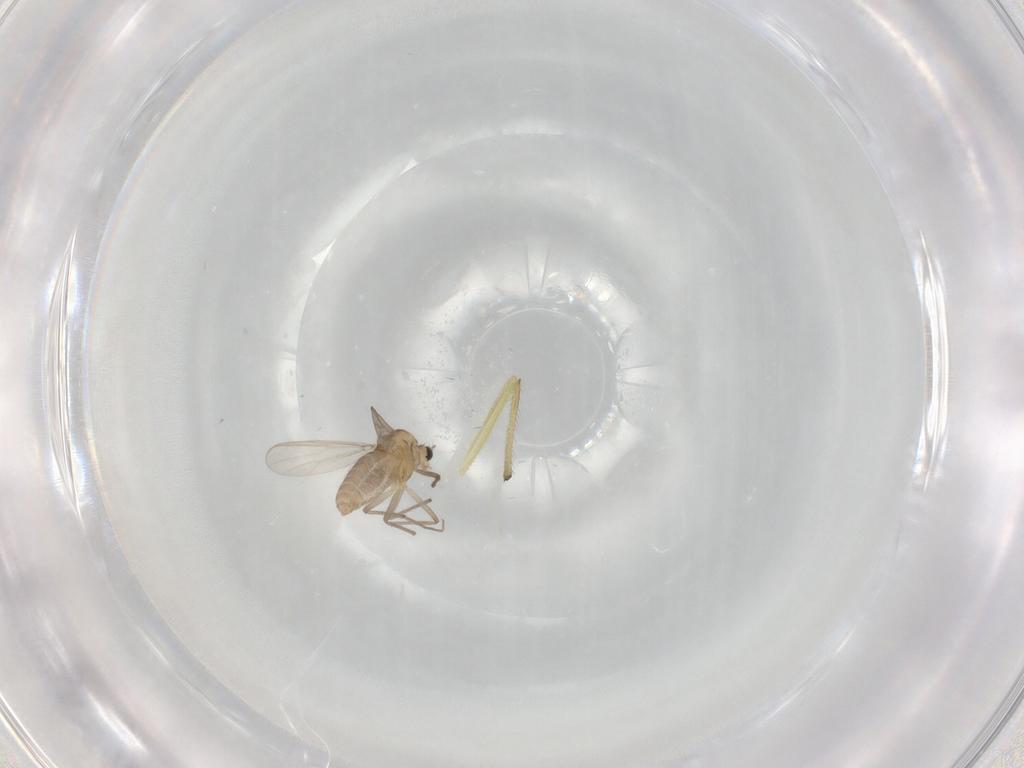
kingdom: Animalia
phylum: Arthropoda
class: Insecta
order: Diptera
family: Chironomidae
